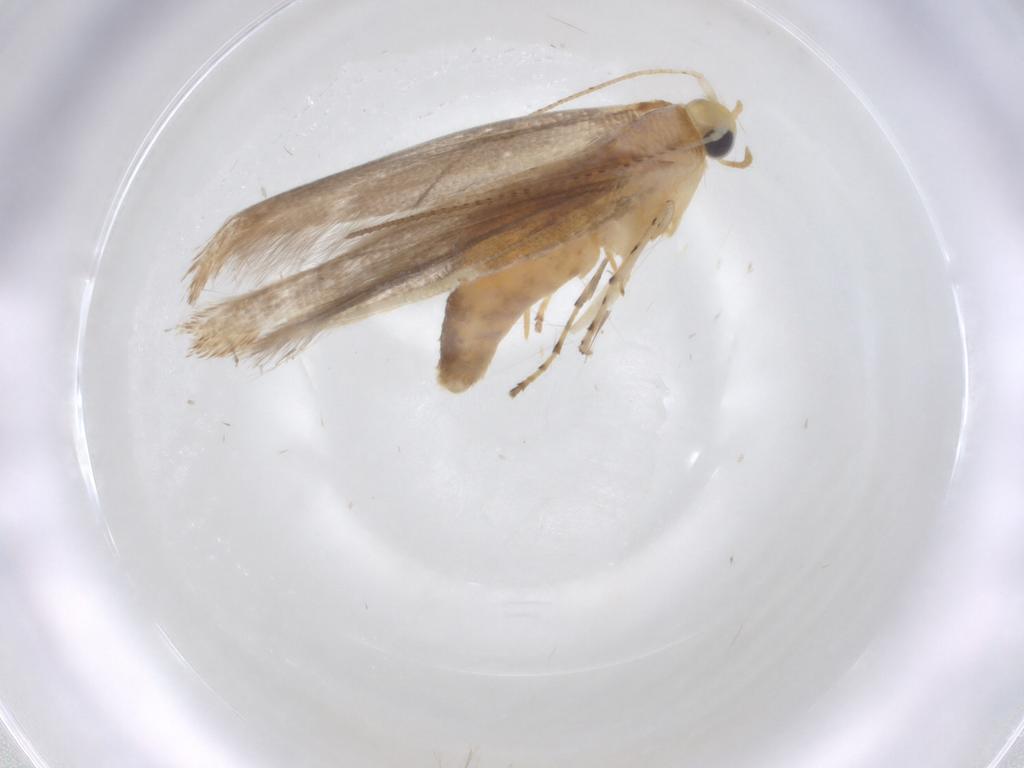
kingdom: Animalia
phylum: Arthropoda
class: Insecta
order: Lepidoptera
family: Argyresthiidae
